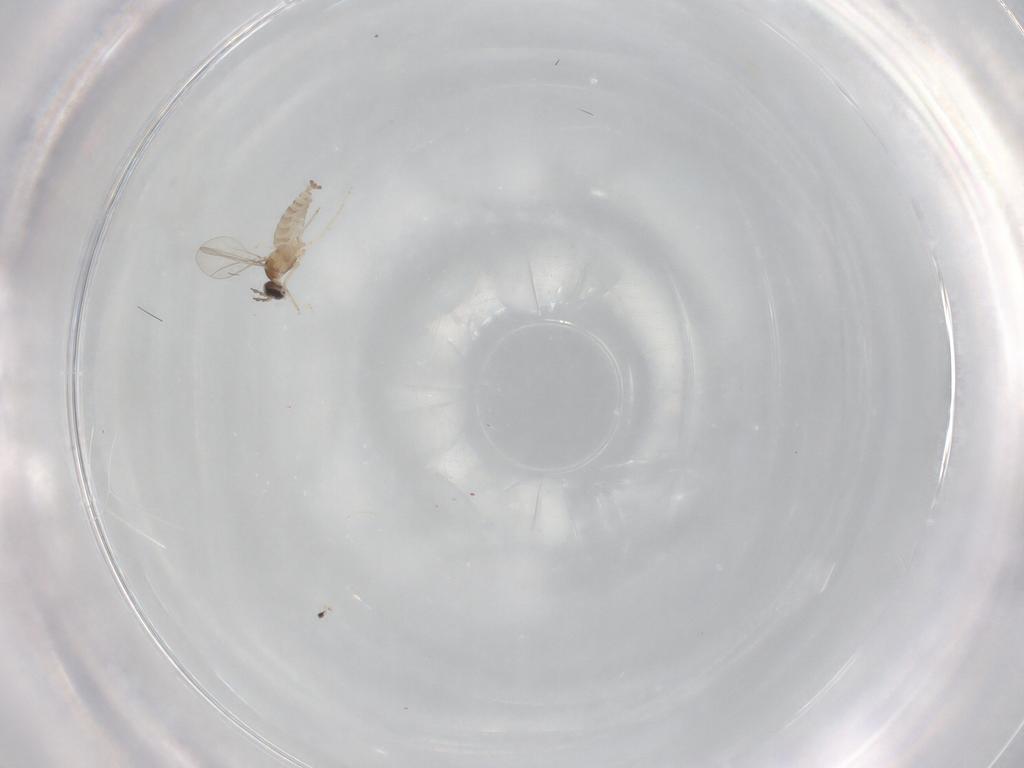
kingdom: Animalia
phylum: Arthropoda
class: Insecta
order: Diptera
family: Cecidomyiidae
